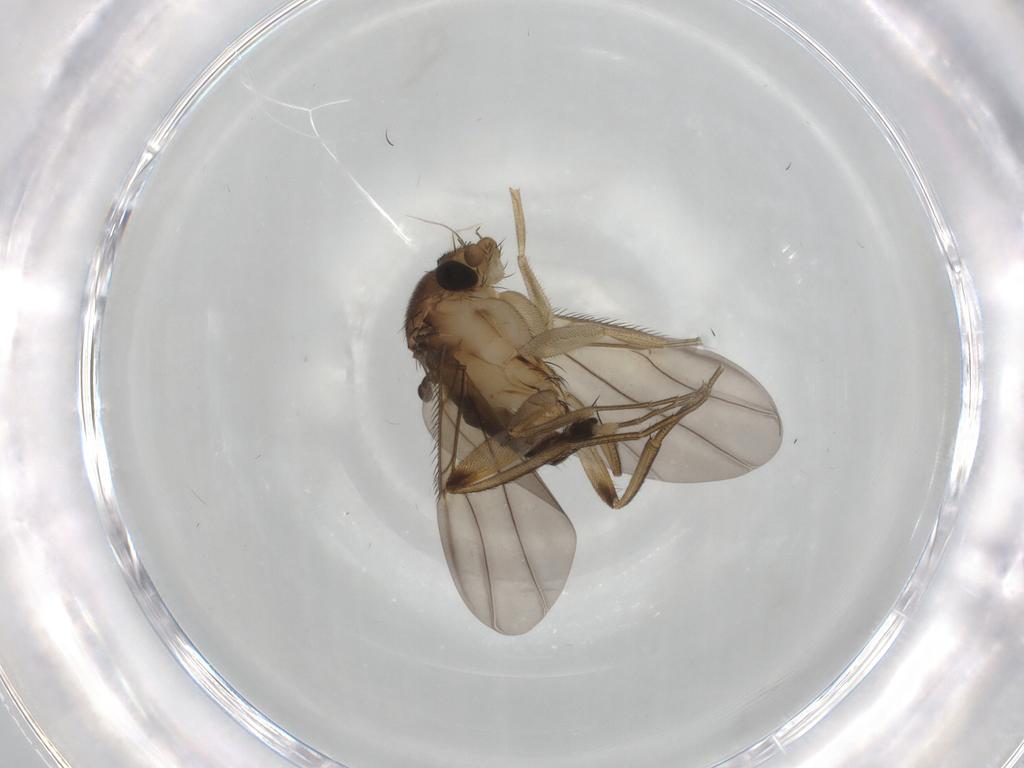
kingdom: Animalia
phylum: Arthropoda
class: Insecta
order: Diptera
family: Phoridae
